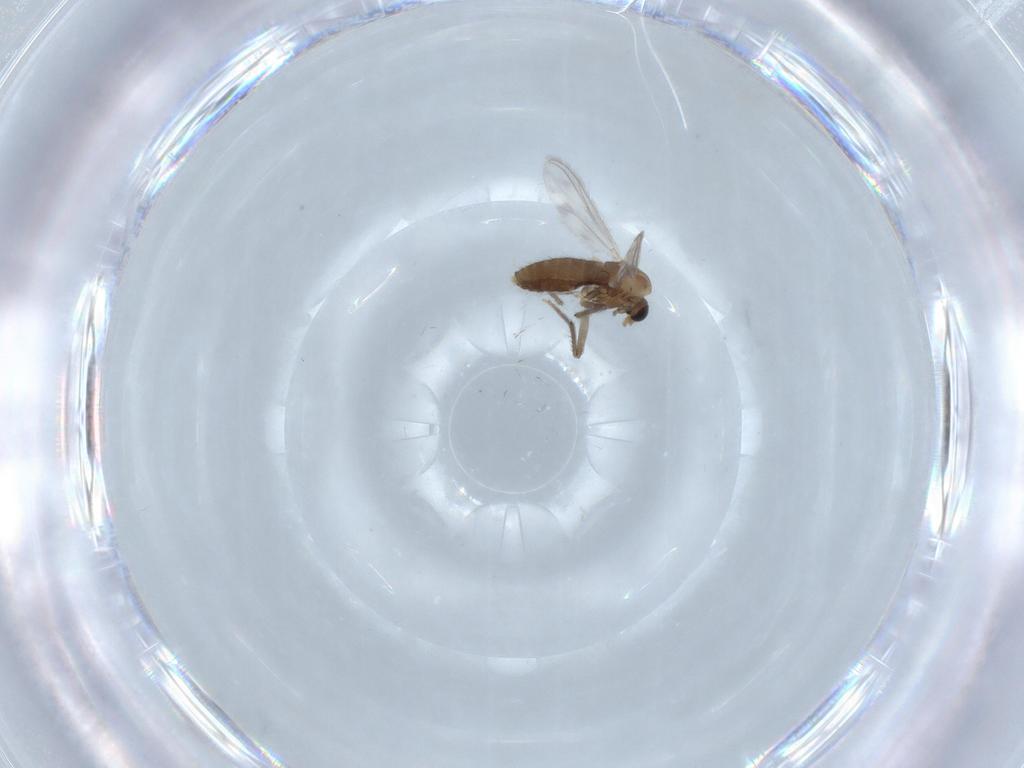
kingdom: Animalia
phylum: Arthropoda
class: Insecta
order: Diptera
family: Chironomidae
